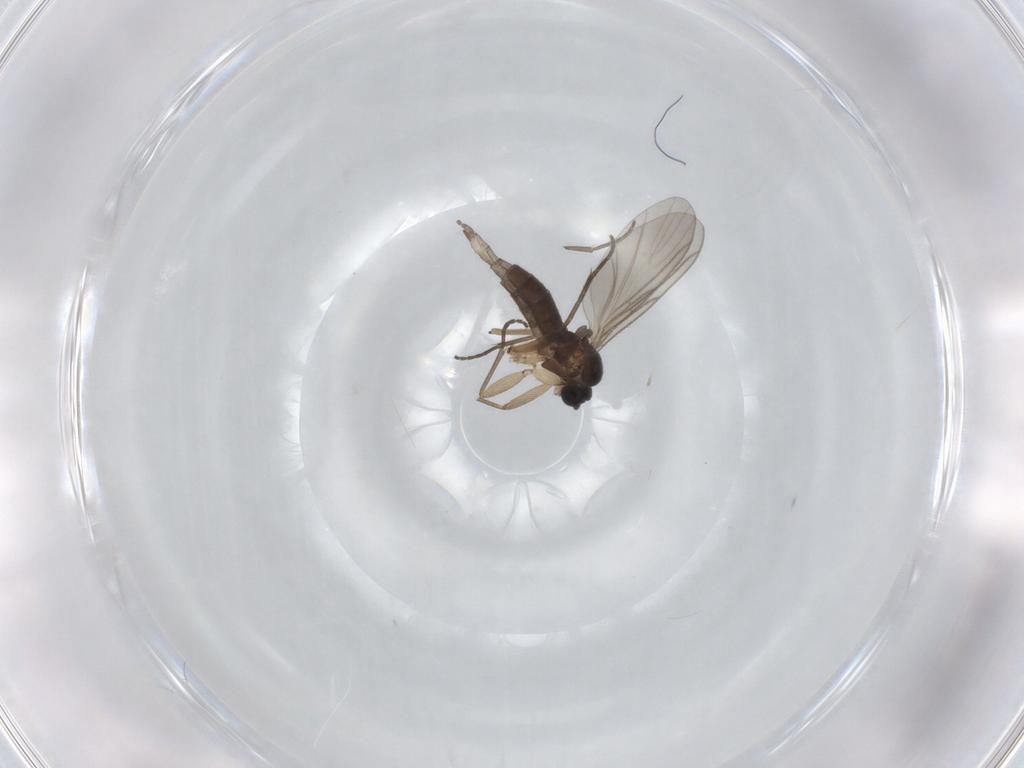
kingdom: Animalia
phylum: Arthropoda
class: Insecta
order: Diptera
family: Sciaridae
